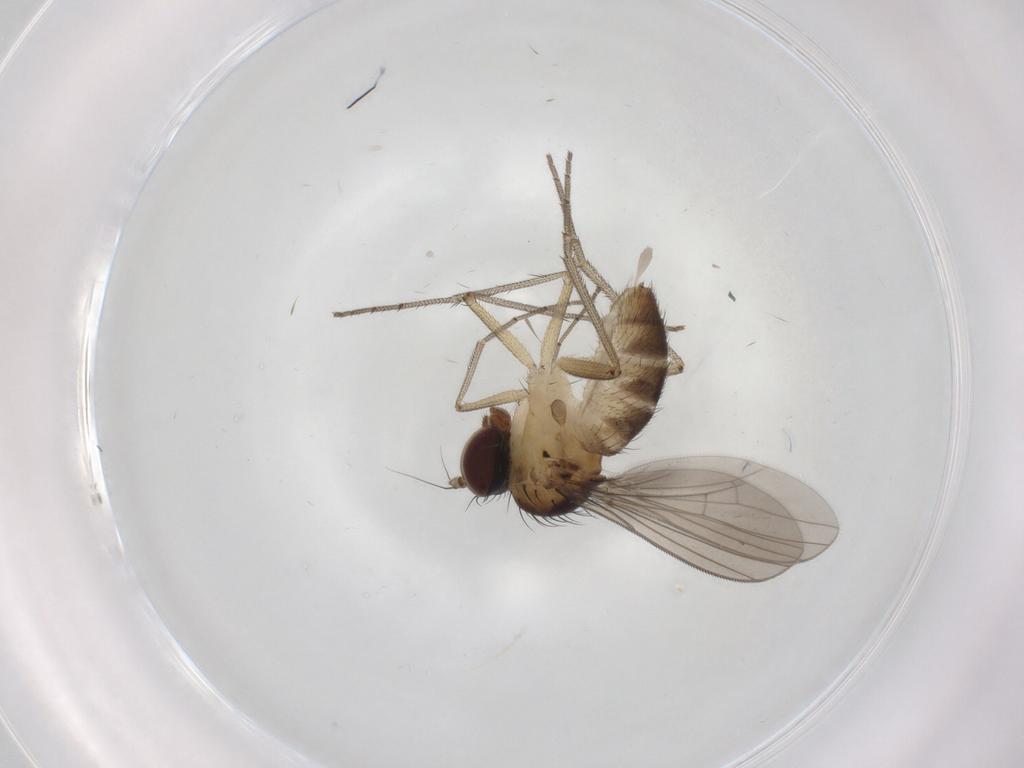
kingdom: Animalia
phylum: Arthropoda
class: Insecta
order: Diptera
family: Dolichopodidae
